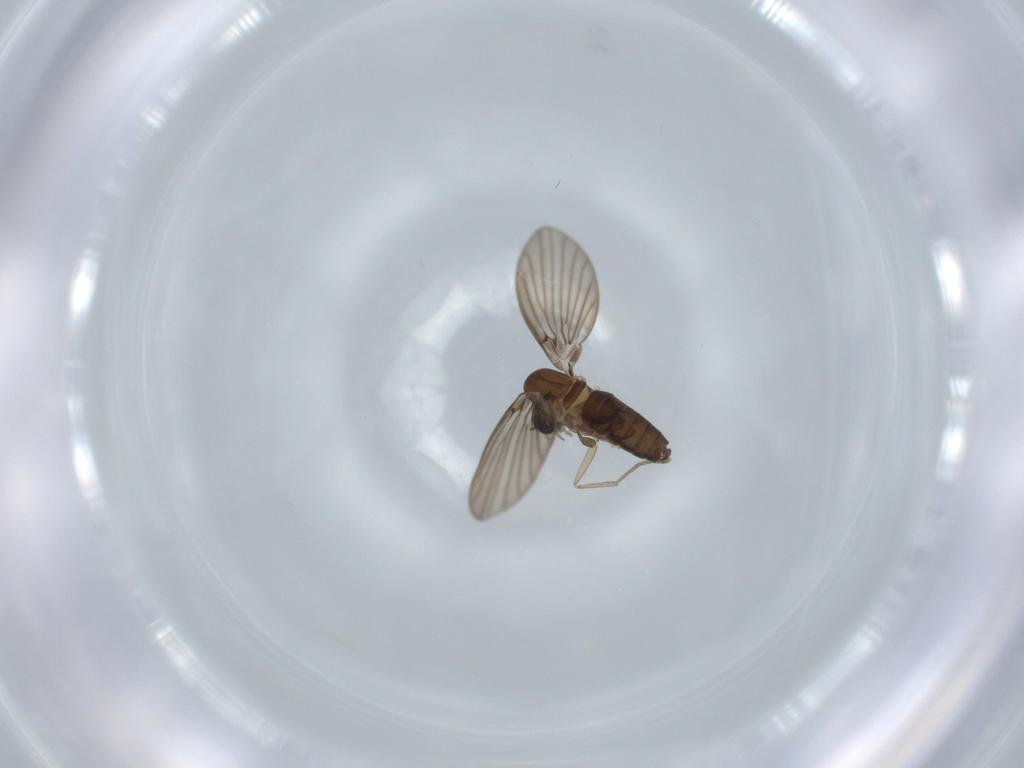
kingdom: Animalia
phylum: Arthropoda
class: Insecta
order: Diptera
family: Psychodidae
